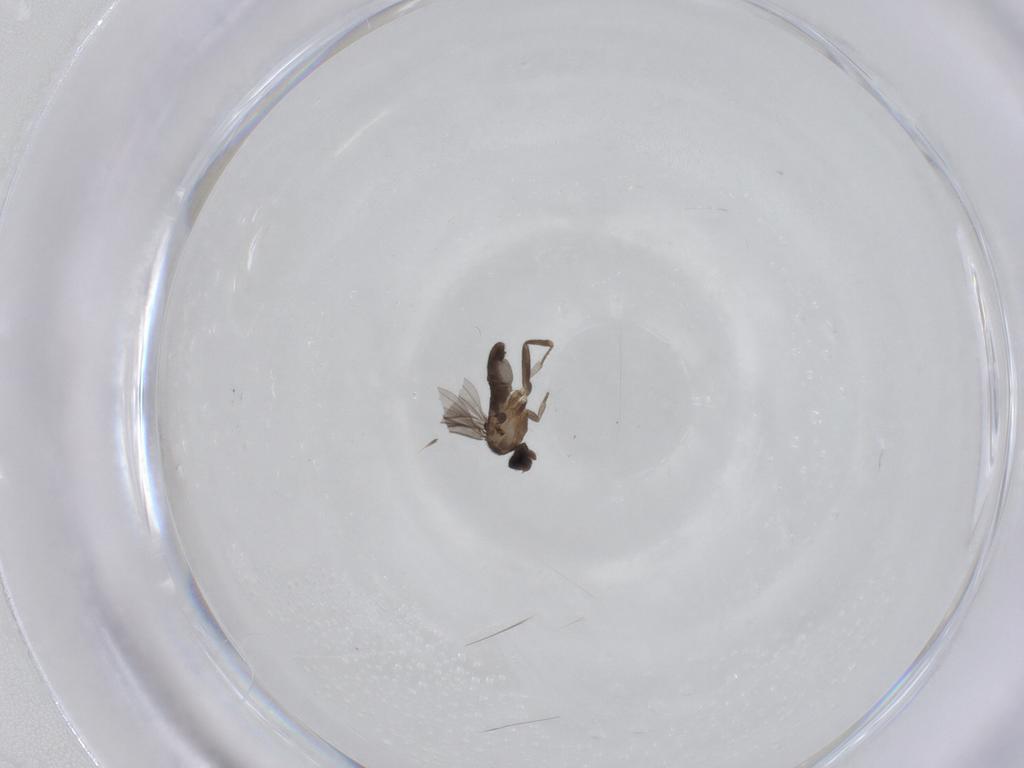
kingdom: Animalia
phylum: Arthropoda
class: Insecta
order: Diptera
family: Phoridae
